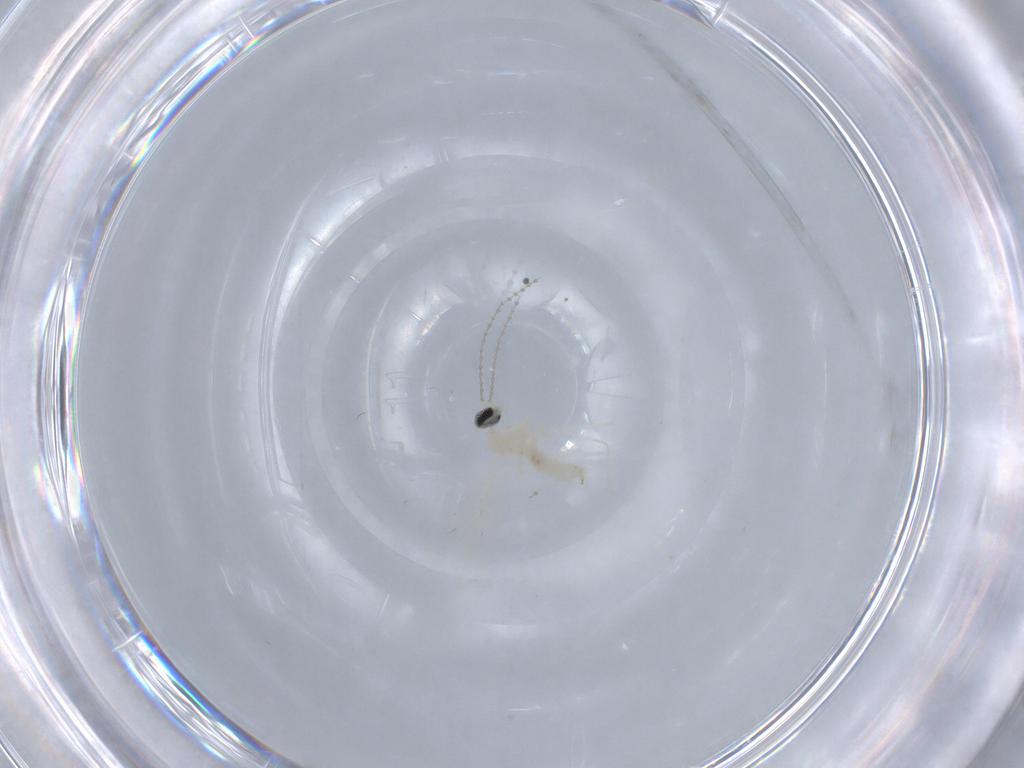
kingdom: Animalia
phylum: Arthropoda
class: Insecta
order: Diptera
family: Cecidomyiidae
